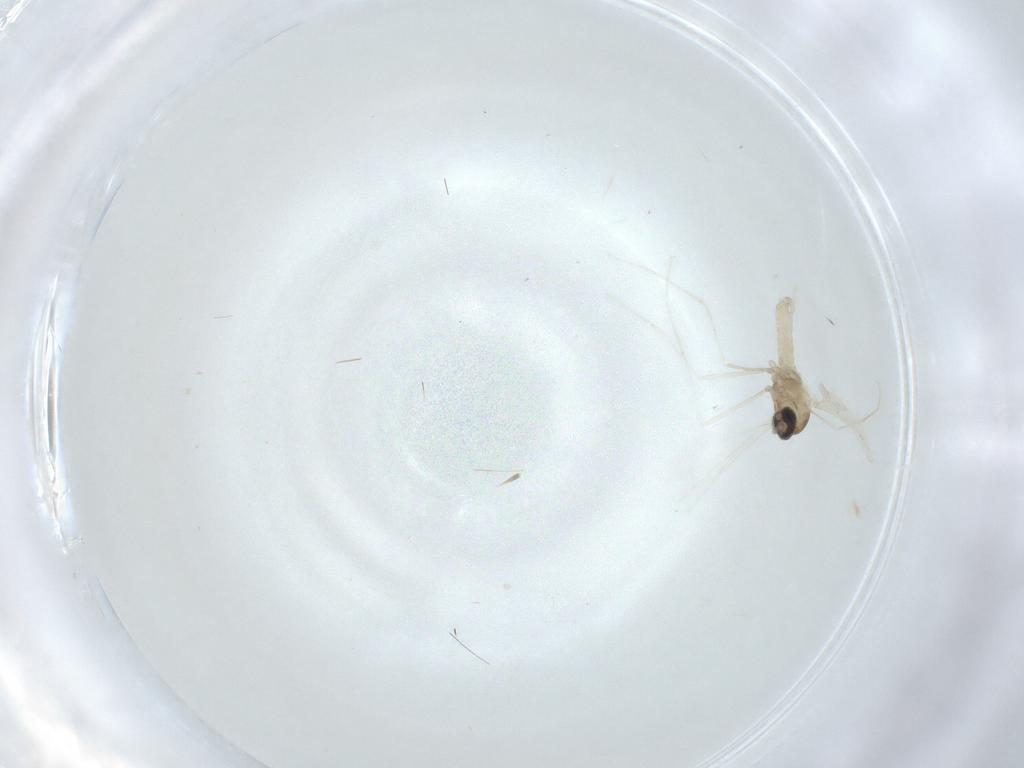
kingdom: Animalia
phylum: Arthropoda
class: Insecta
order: Diptera
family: Cecidomyiidae
